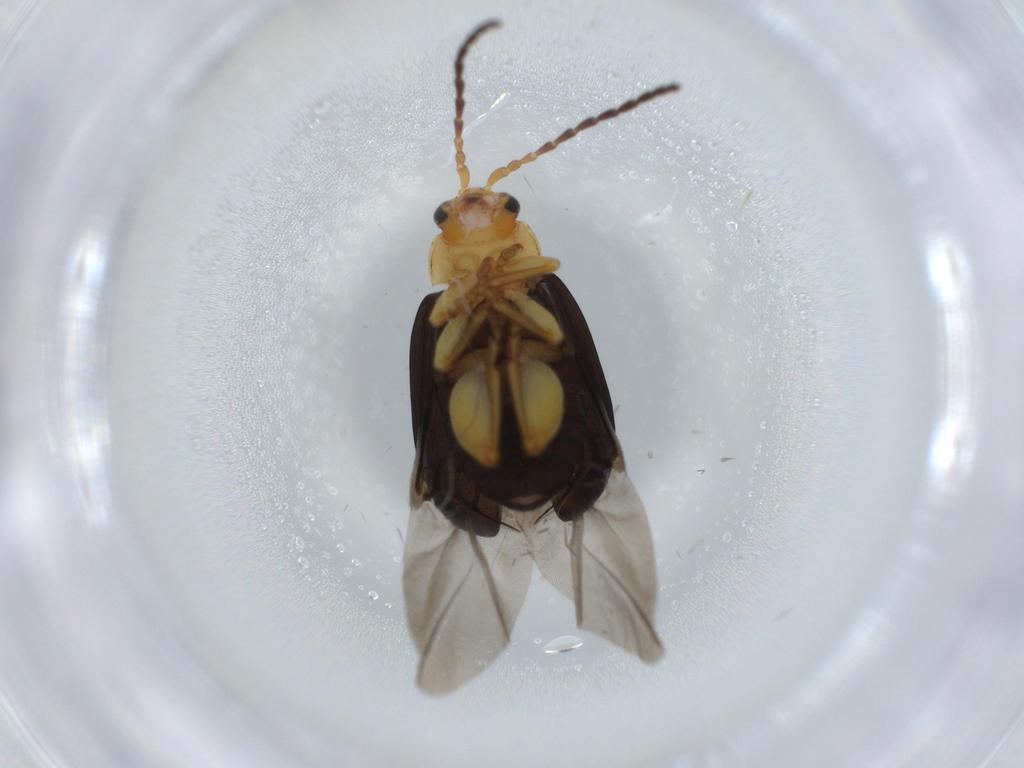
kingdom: Animalia
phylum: Arthropoda
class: Insecta
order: Coleoptera
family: Chrysomelidae
